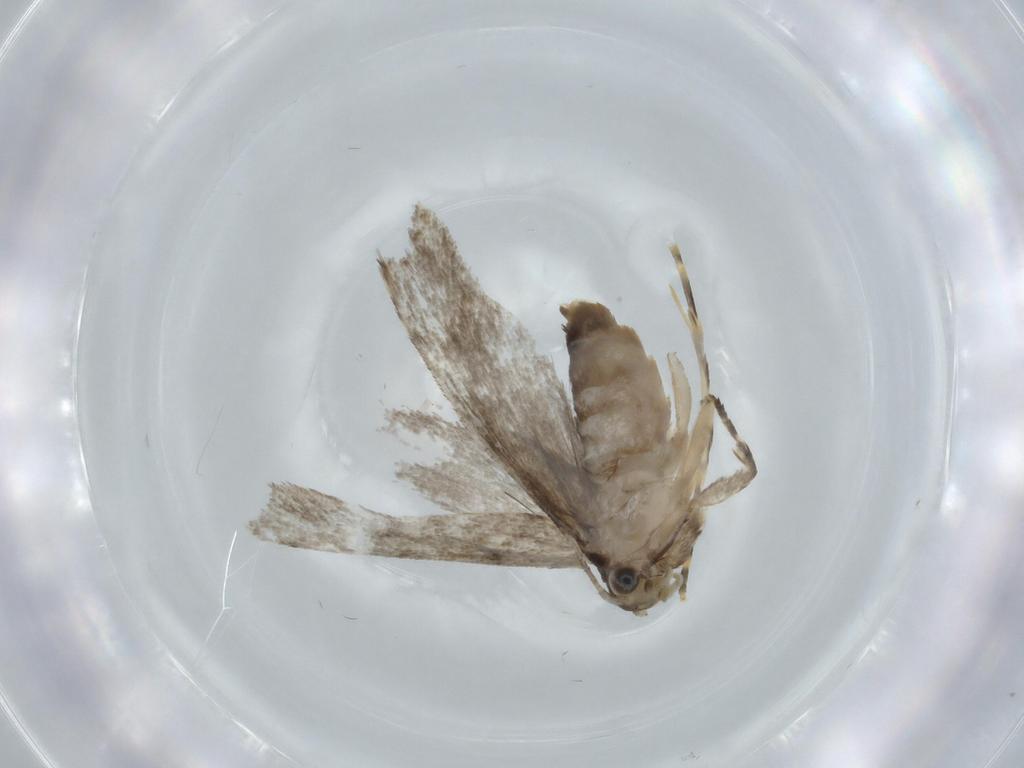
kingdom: Animalia
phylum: Arthropoda
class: Insecta
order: Lepidoptera
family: Tineidae
